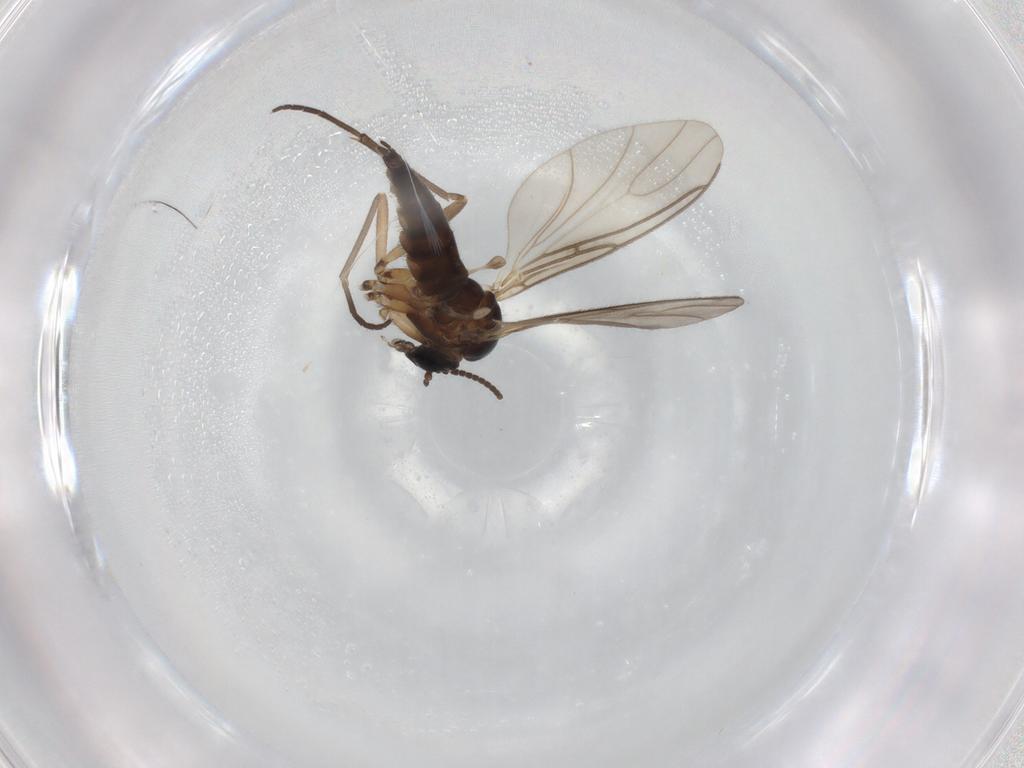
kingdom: Animalia
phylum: Arthropoda
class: Insecta
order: Diptera
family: Sciaridae
